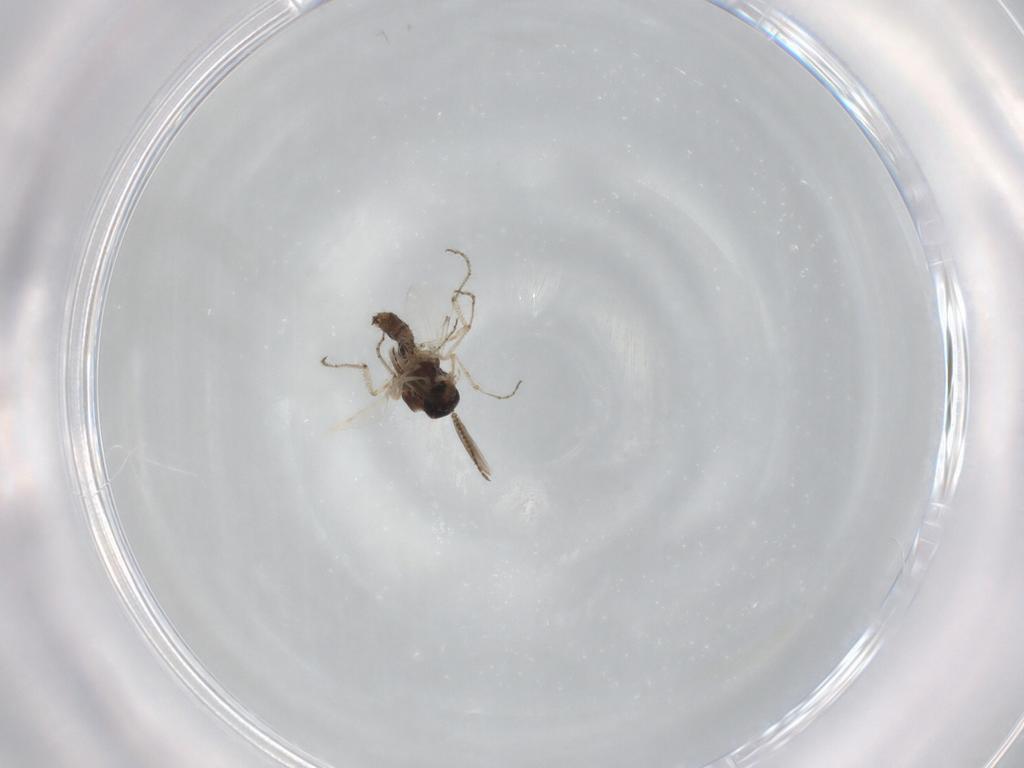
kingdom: Animalia
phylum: Arthropoda
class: Insecta
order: Diptera
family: Ceratopogonidae
